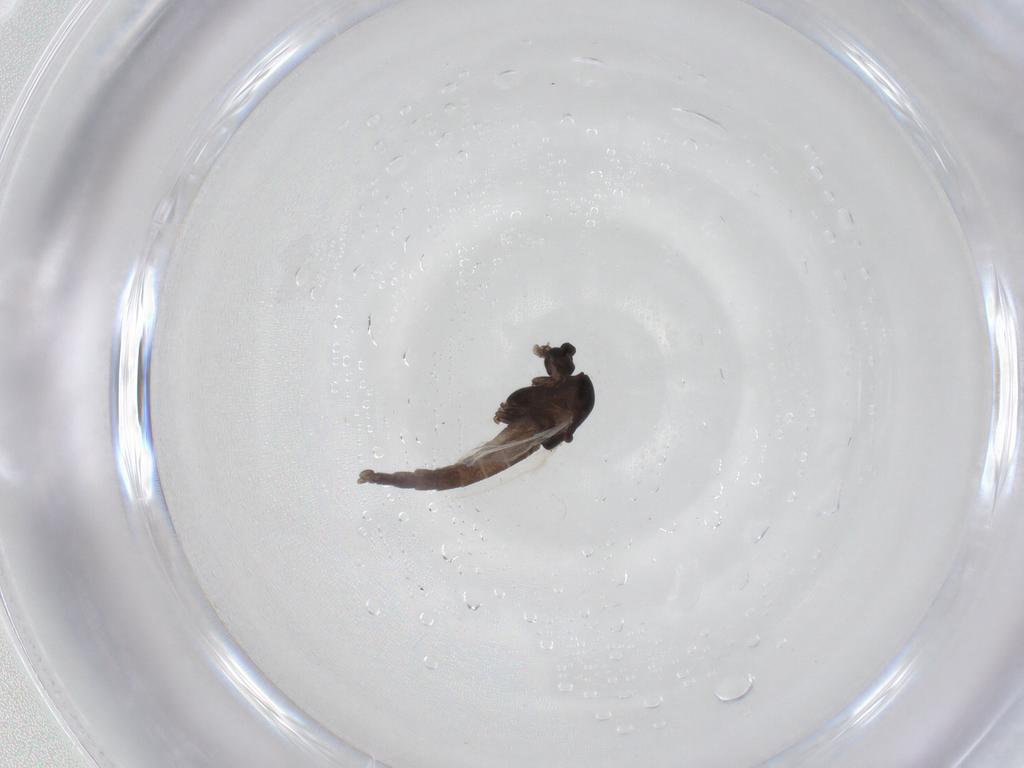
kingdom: Animalia
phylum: Arthropoda
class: Insecta
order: Diptera
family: Chironomidae
